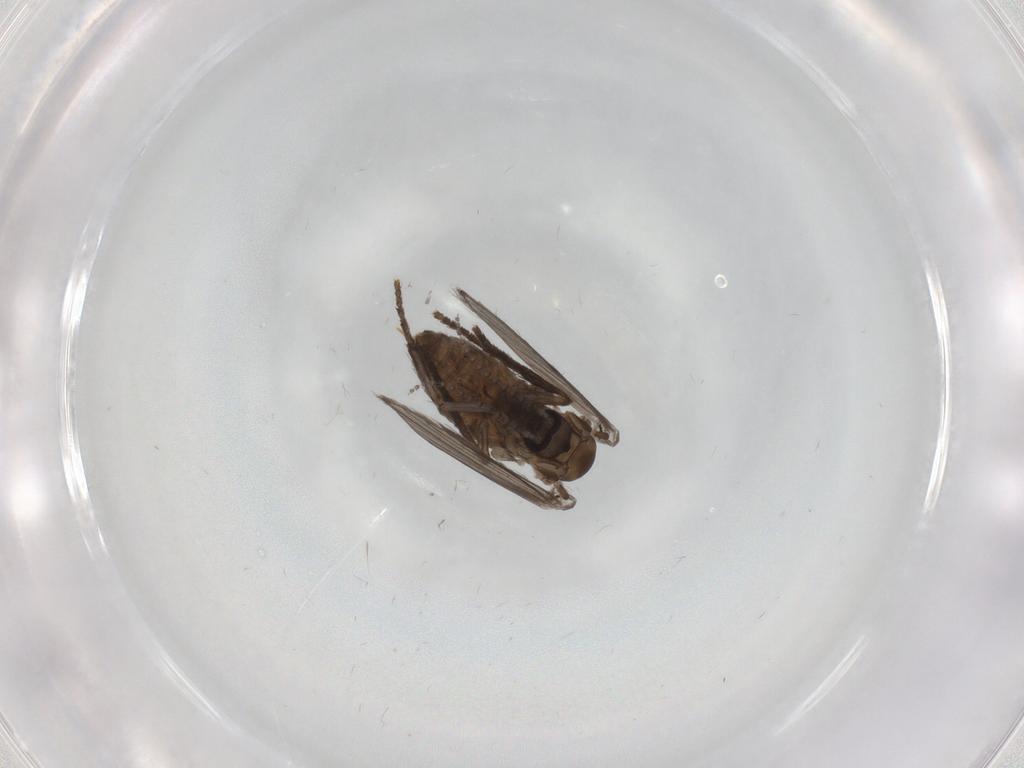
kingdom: Animalia
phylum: Arthropoda
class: Insecta
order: Diptera
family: Psychodidae
